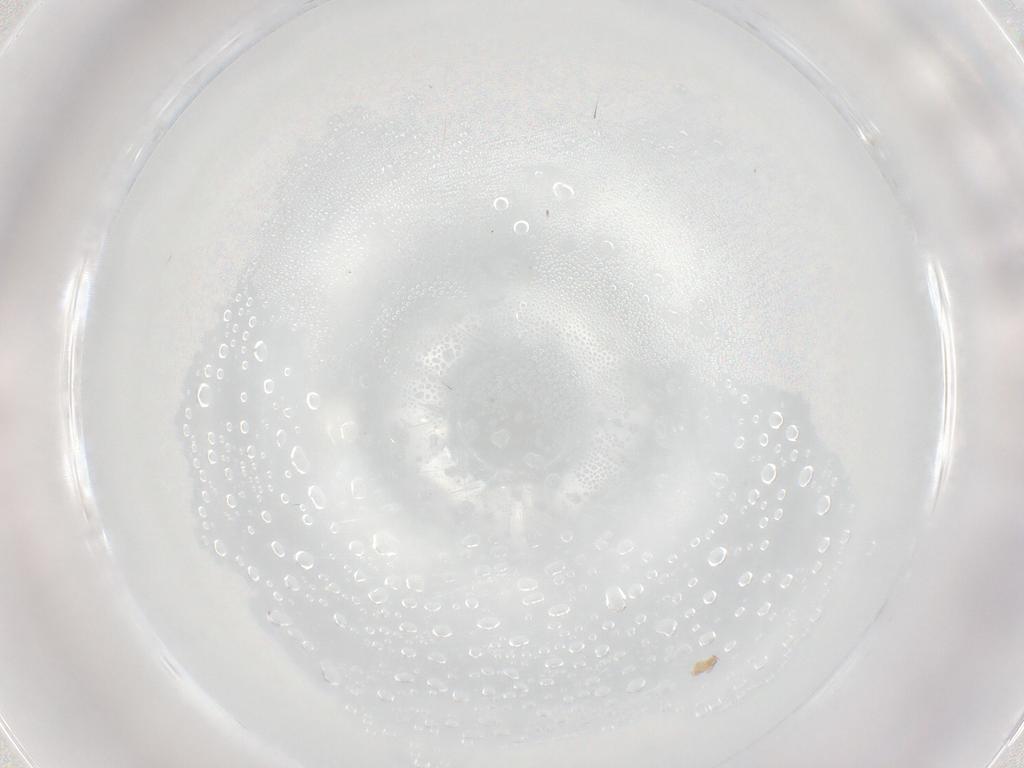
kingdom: Animalia
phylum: Arthropoda
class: Insecta
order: Hemiptera
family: Aleyrodidae
